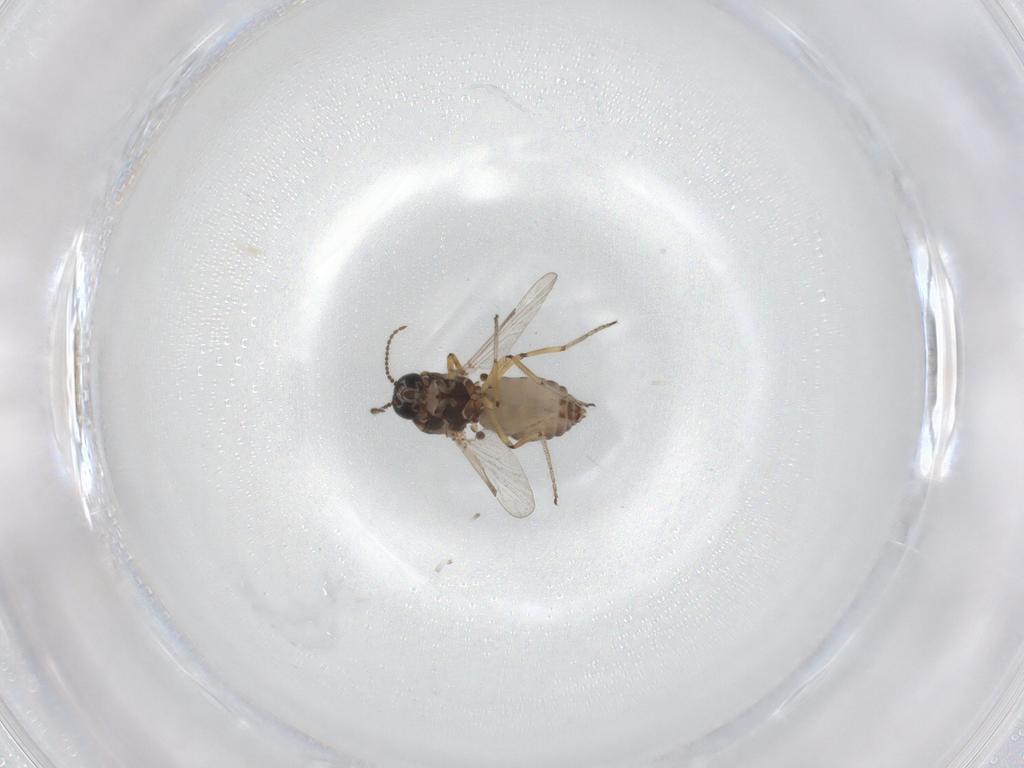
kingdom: Animalia
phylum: Arthropoda
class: Insecta
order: Diptera
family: Ceratopogonidae
